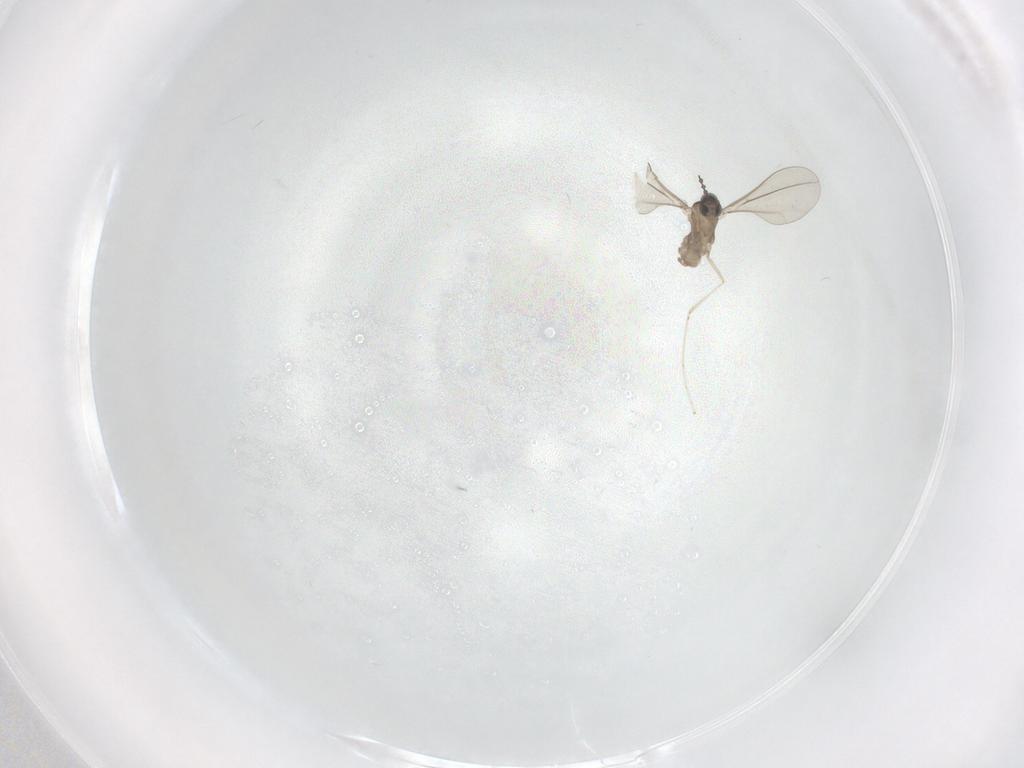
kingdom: Animalia
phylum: Arthropoda
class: Insecta
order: Diptera
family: Cecidomyiidae
